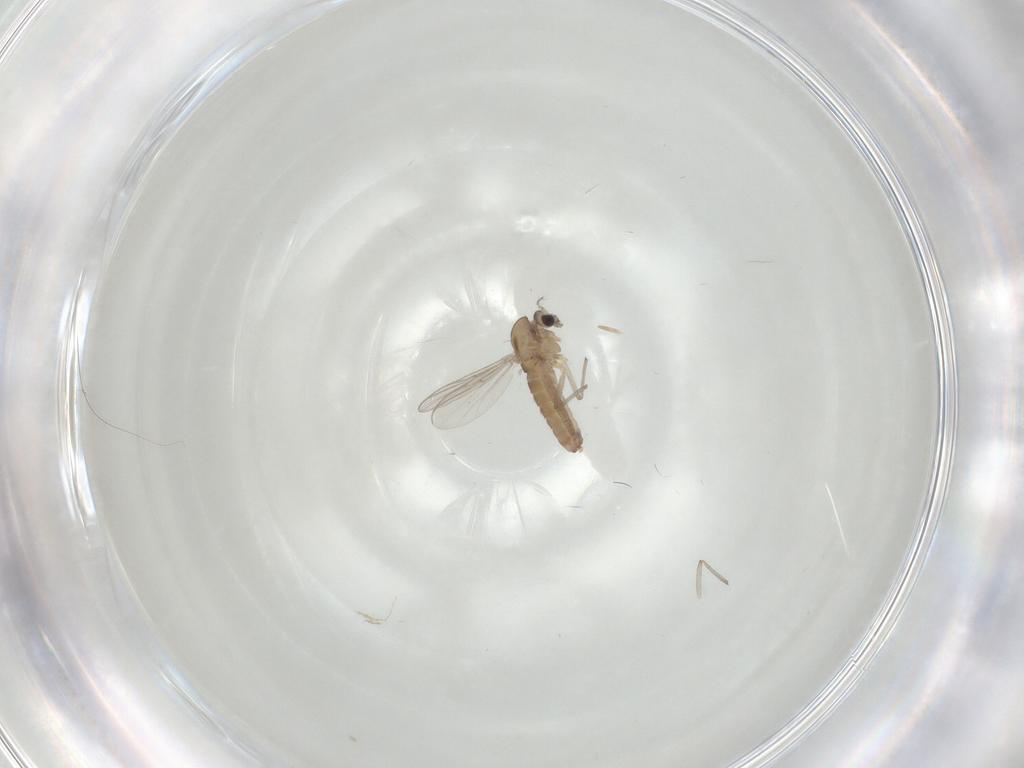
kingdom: Animalia
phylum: Arthropoda
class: Insecta
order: Diptera
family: Chironomidae
